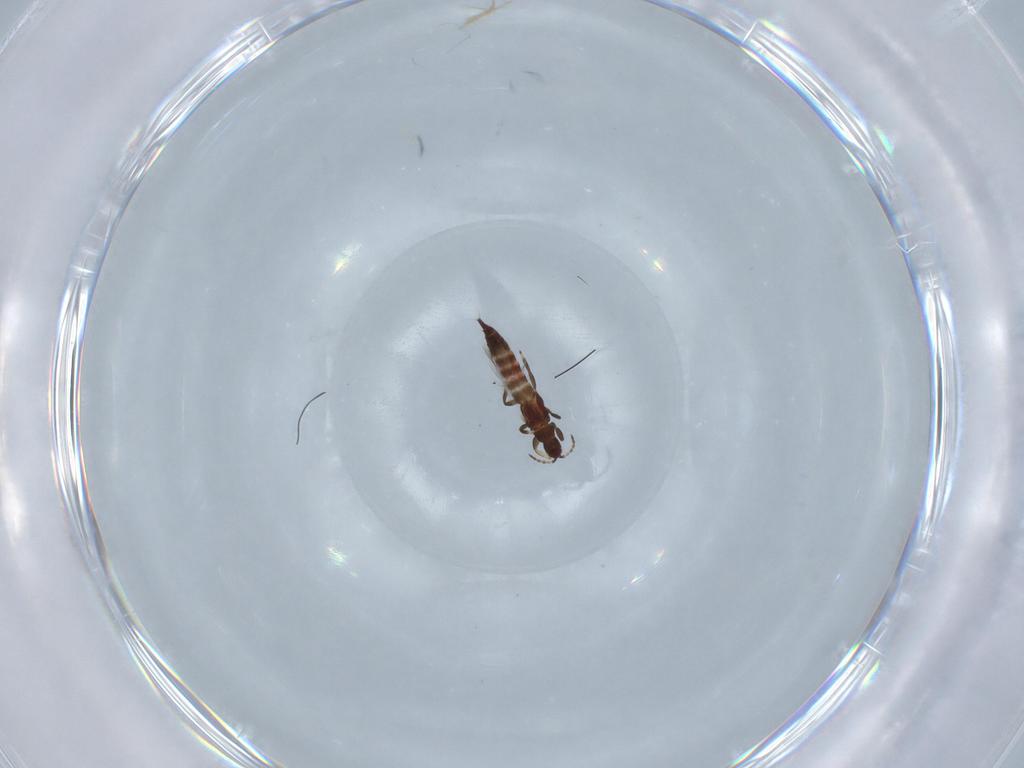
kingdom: Animalia
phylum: Arthropoda
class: Insecta
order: Thysanoptera
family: Phlaeothripidae
